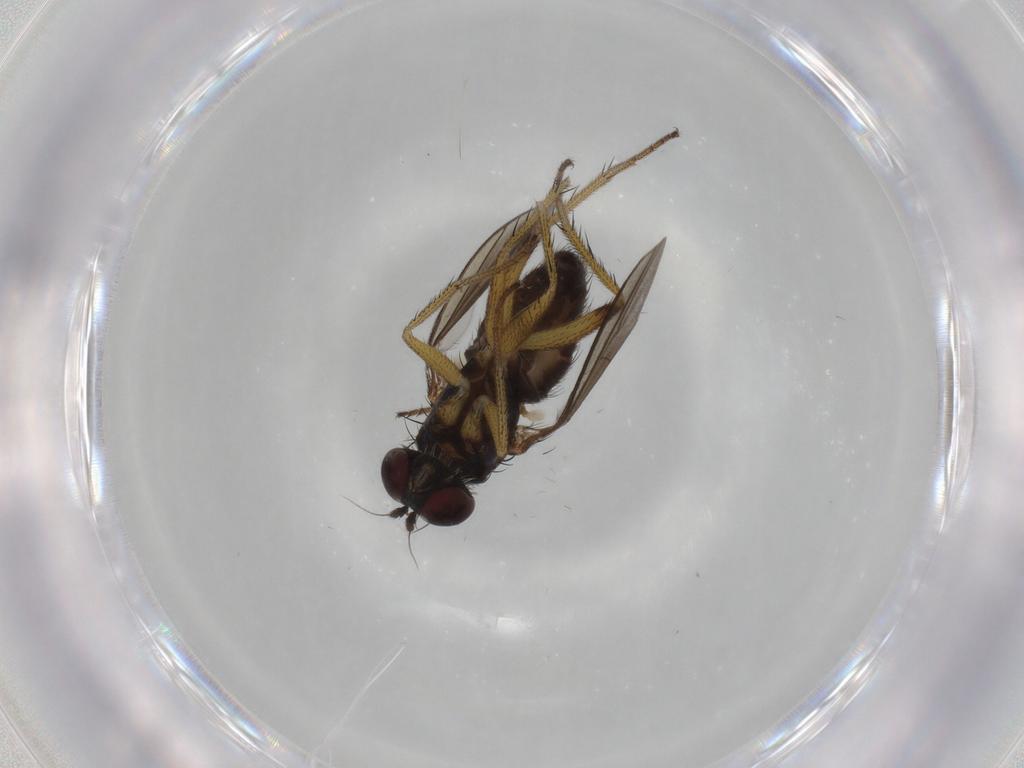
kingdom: Animalia
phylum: Arthropoda
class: Insecta
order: Diptera
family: Dolichopodidae
